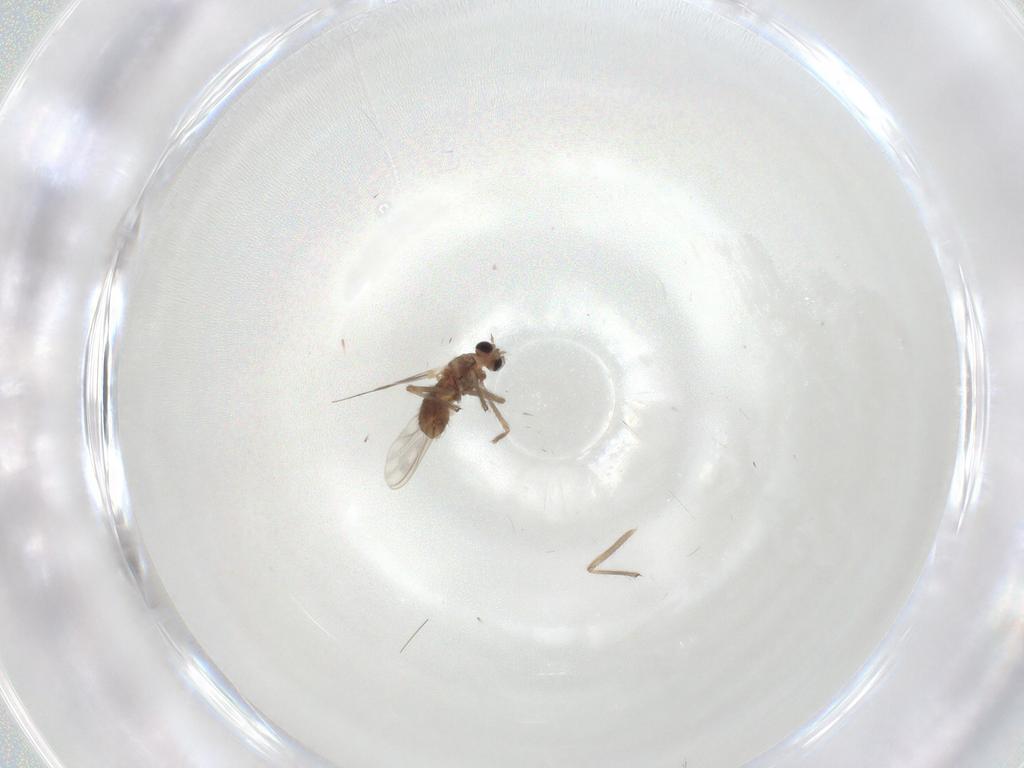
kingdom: Animalia
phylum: Arthropoda
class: Insecta
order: Diptera
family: Chironomidae
